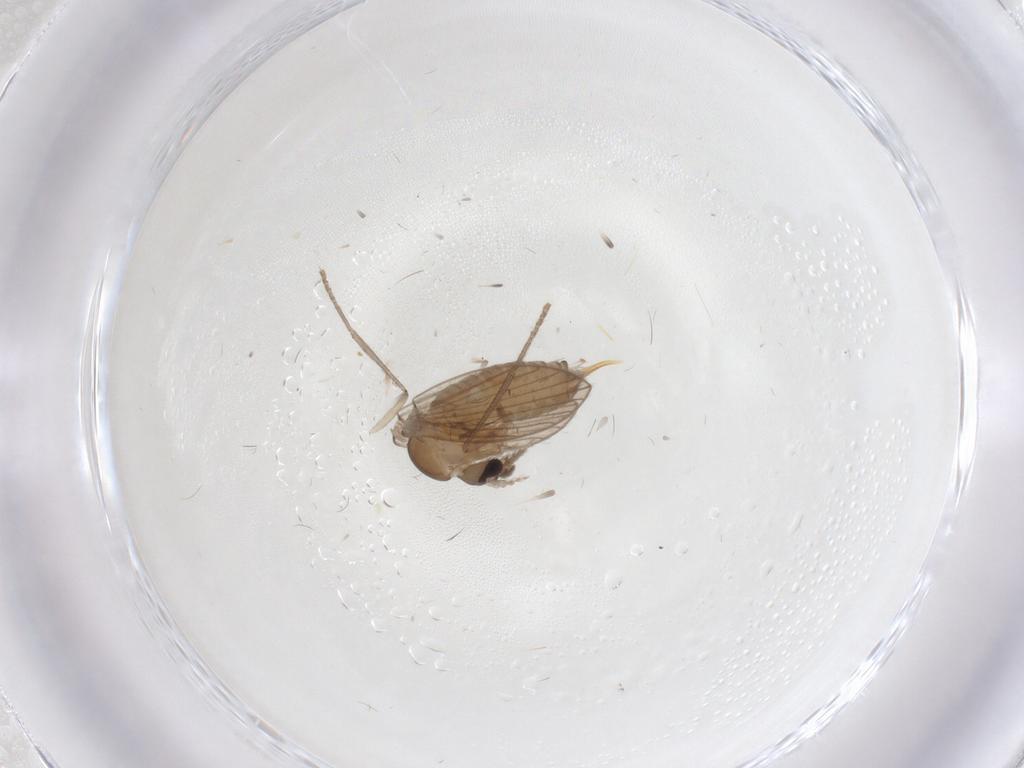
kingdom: Animalia
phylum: Arthropoda
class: Insecta
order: Diptera
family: Psychodidae
